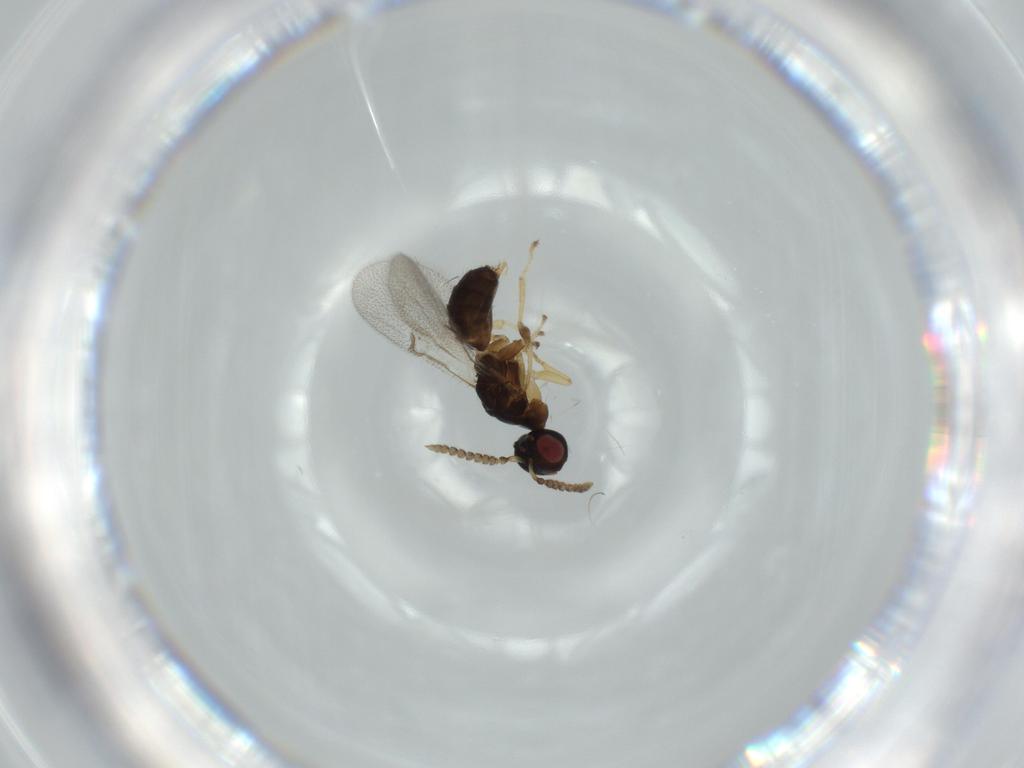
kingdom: Animalia
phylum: Arthropoda
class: Insecta
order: Hymenoptera
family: Agaonidae
